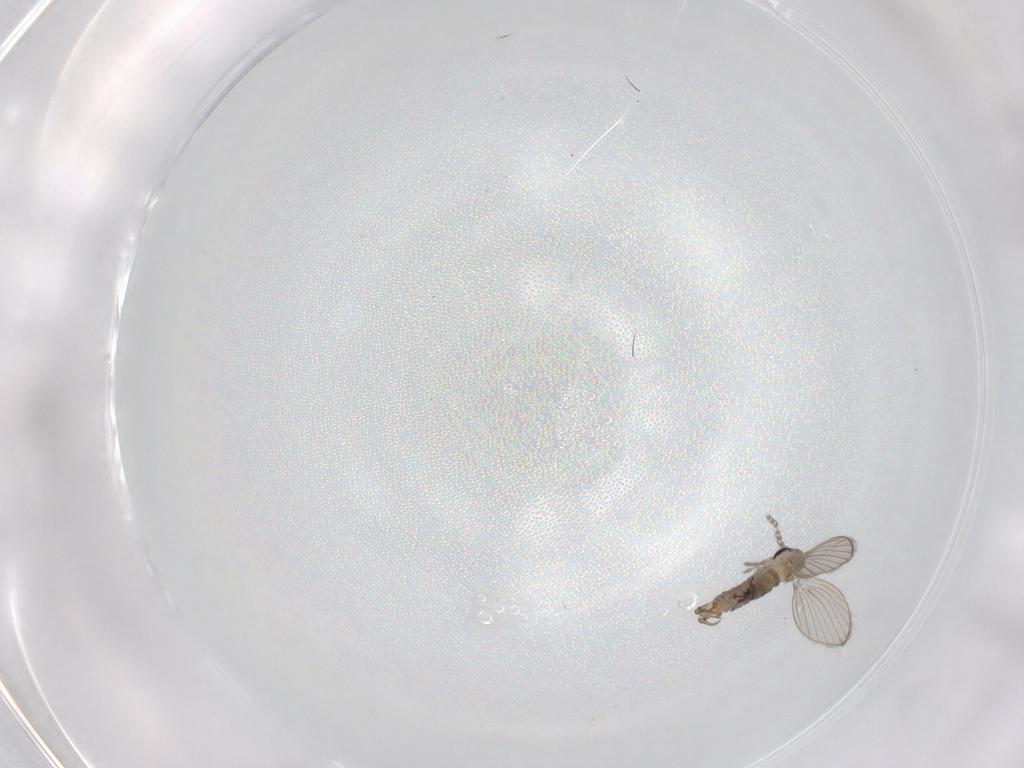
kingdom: Animalia
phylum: Arthropoda
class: Insecta
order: Diptera
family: Psychodidae
